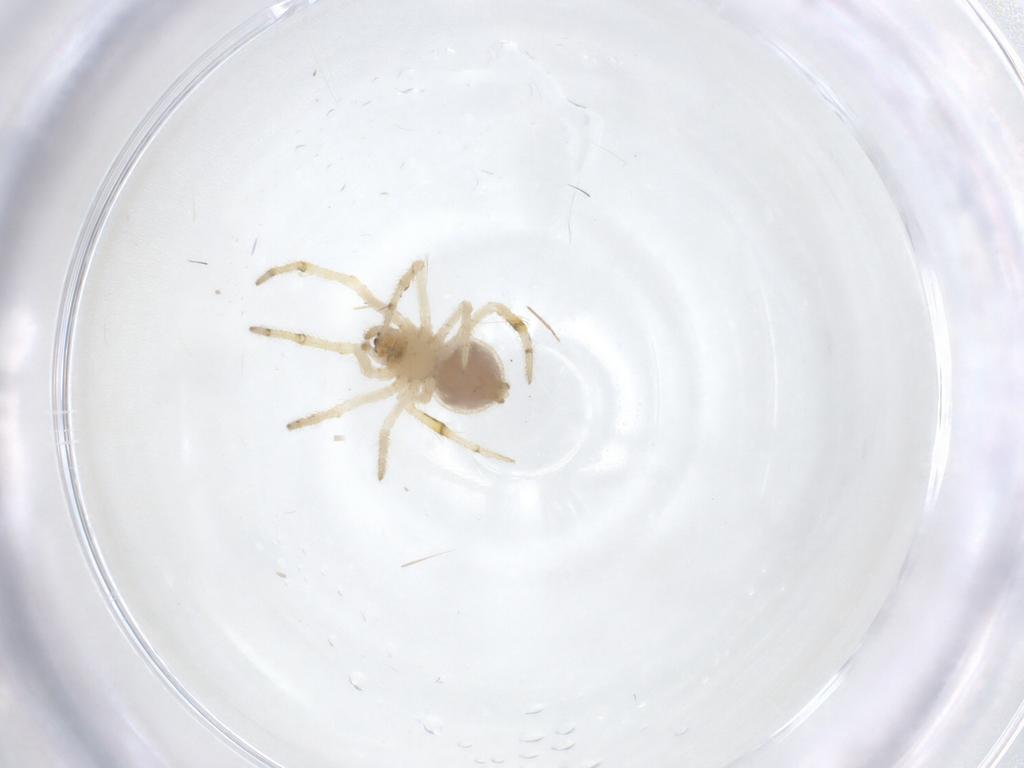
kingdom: Animalia
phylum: Arthropoda
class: Arachnida
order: Araneae
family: Theridiidae
